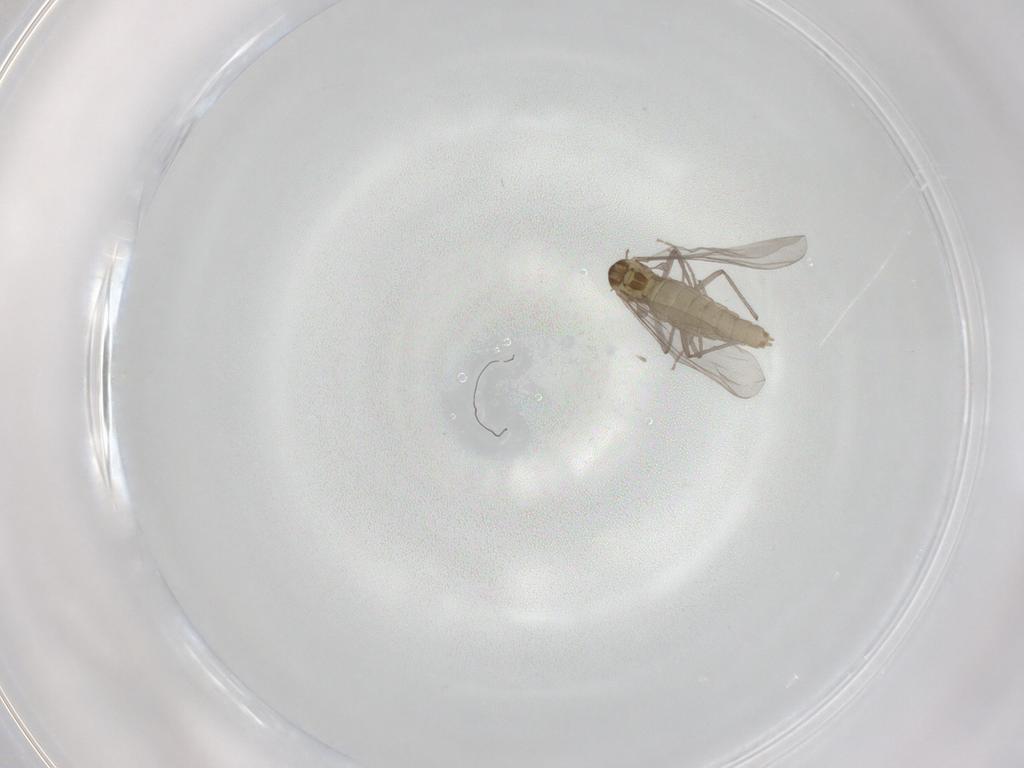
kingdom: Animalia
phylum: Arthropoda
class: Insecta
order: Diptera
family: Chironomidae
